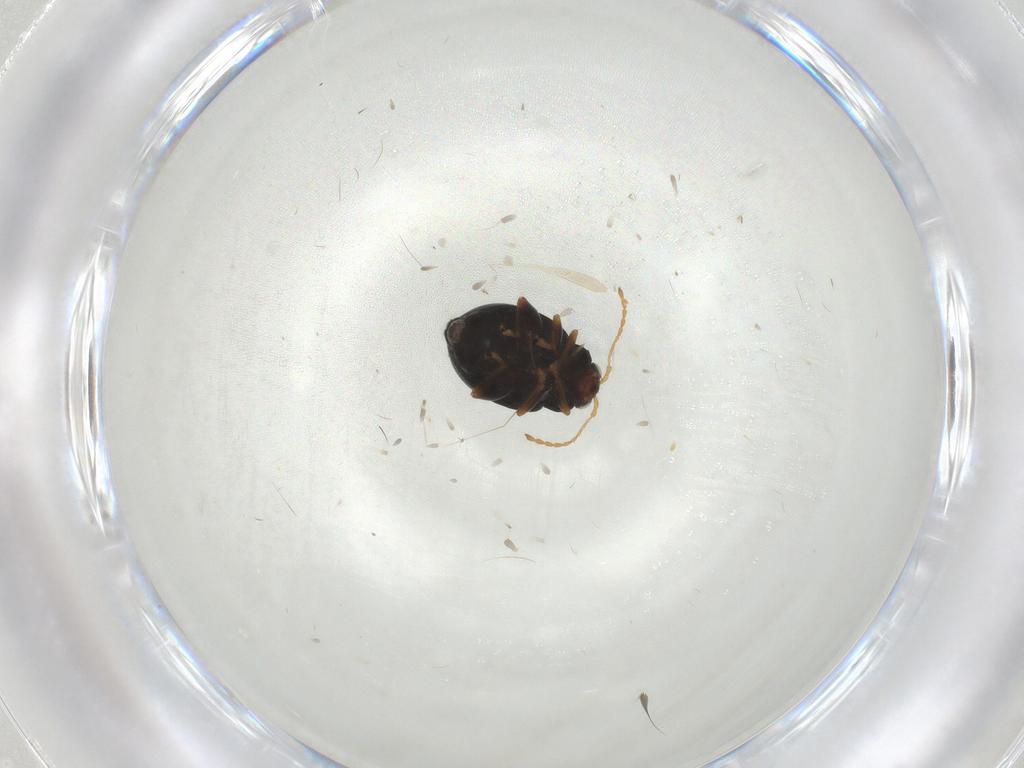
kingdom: Animalia
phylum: Arthropoda
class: Insecta
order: Coleoptera
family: Chrysomelidae
